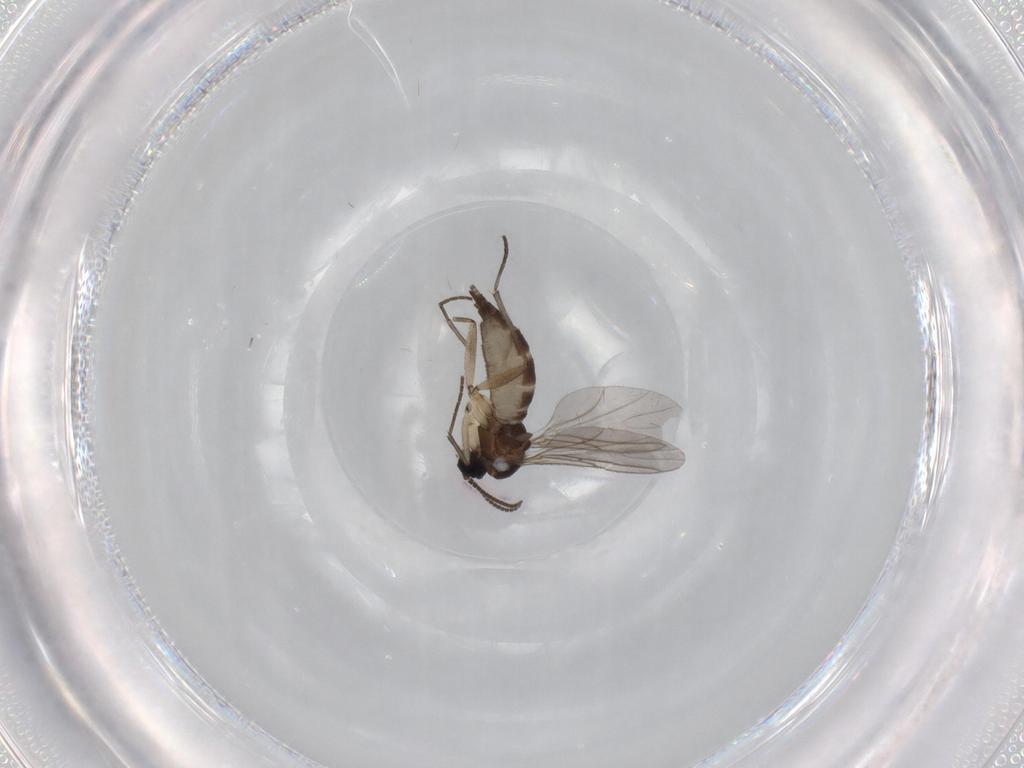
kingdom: Animalia
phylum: Arthropoda
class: Insecta
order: Diptera
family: Sciaridae
